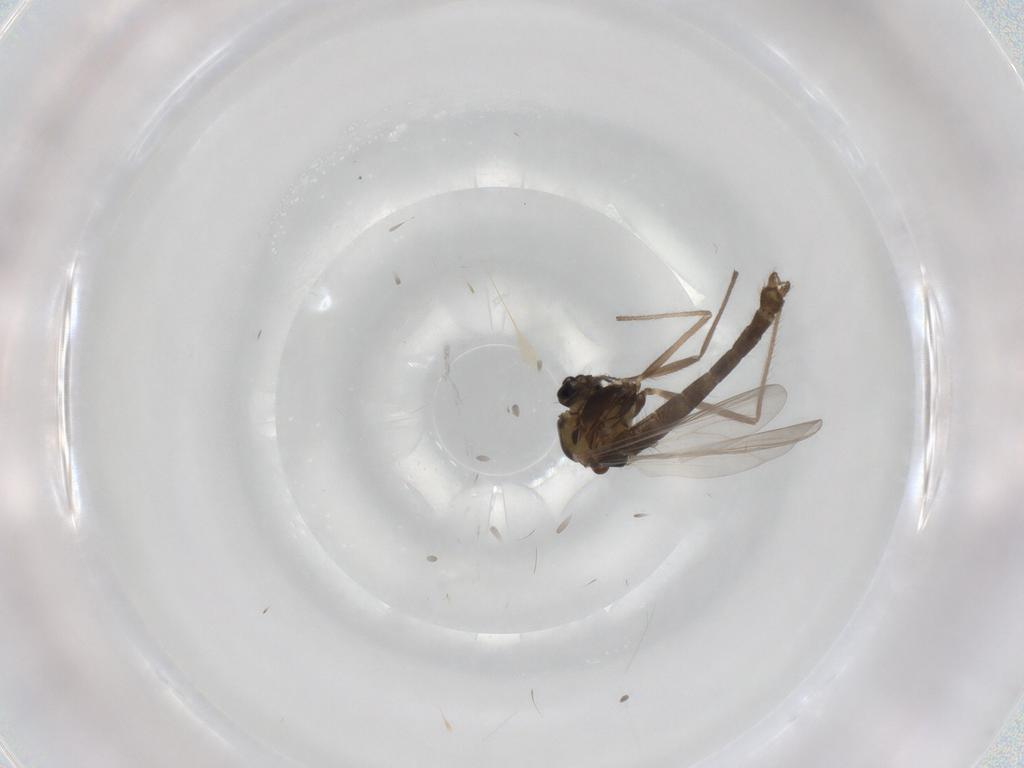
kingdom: Animalia
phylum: Arthropoda
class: Insecta
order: Diptera
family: Chironomidae
